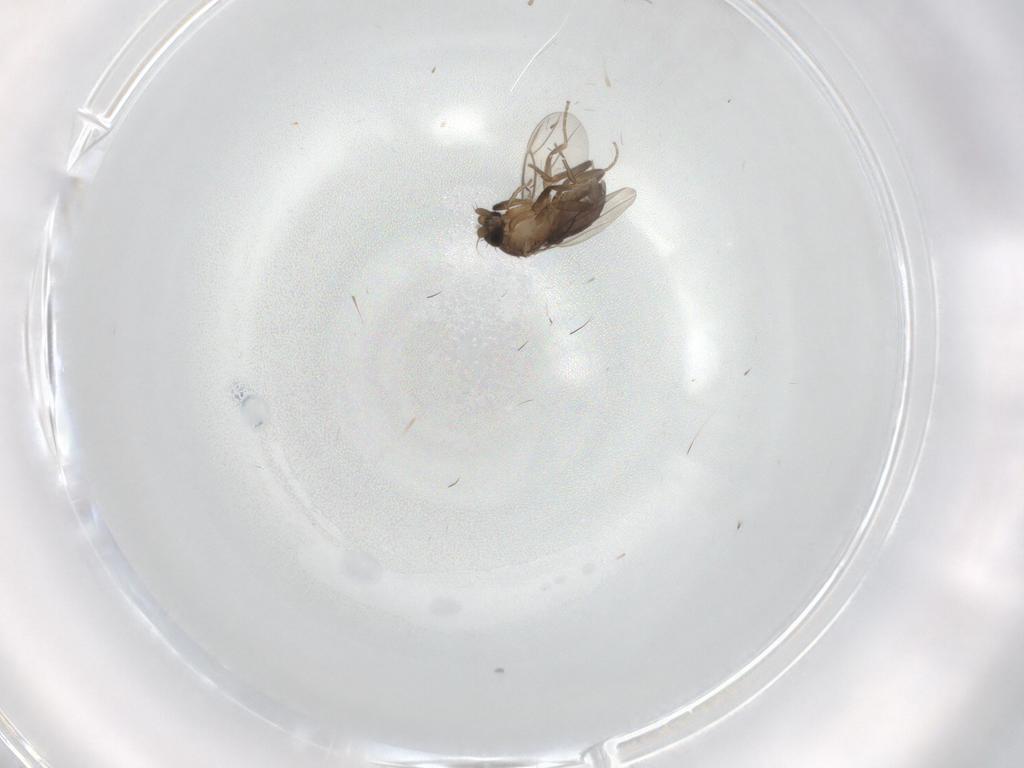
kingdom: Animalia
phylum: Arthropoda
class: Insecta
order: Diptera
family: Phoridae
